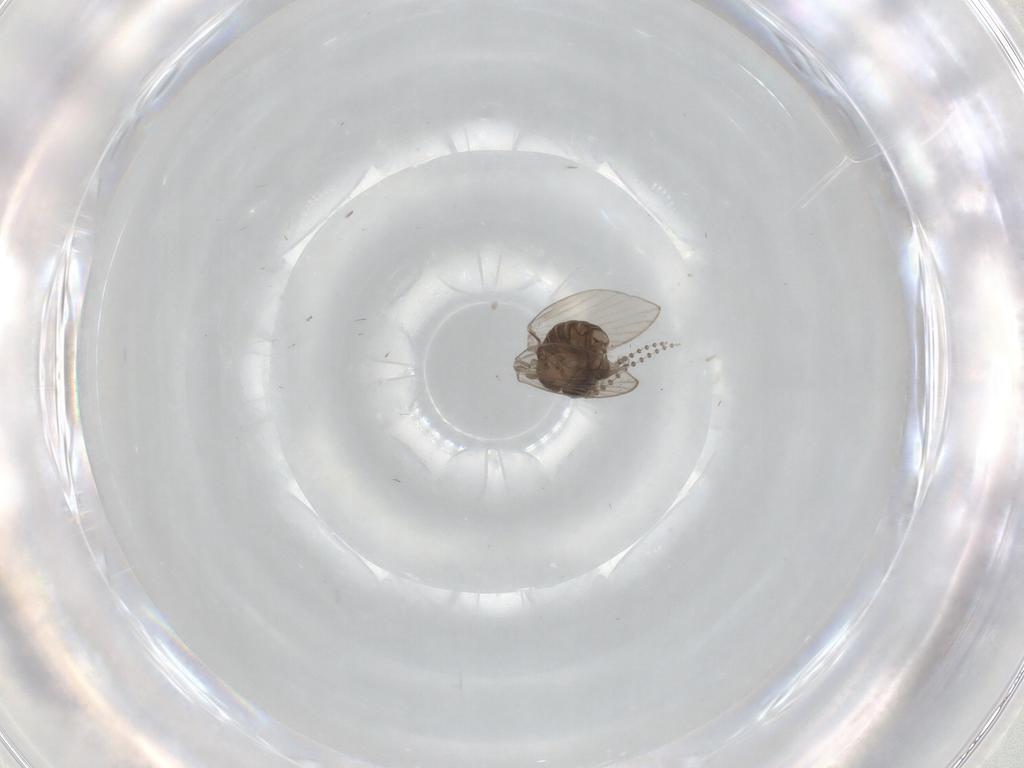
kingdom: Animalia
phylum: Arthropoda
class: Insecta
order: Diptera
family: Psychodidae
